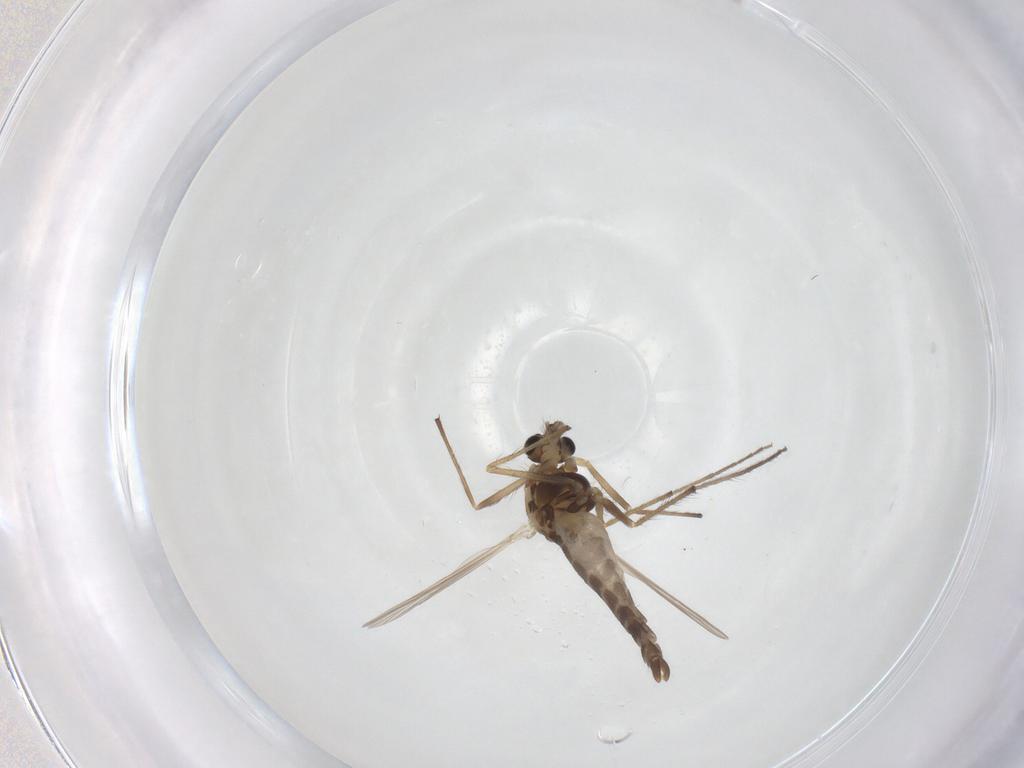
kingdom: Animalia
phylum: Arthropoda
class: Insecta
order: Diptera
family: Chironomidae
